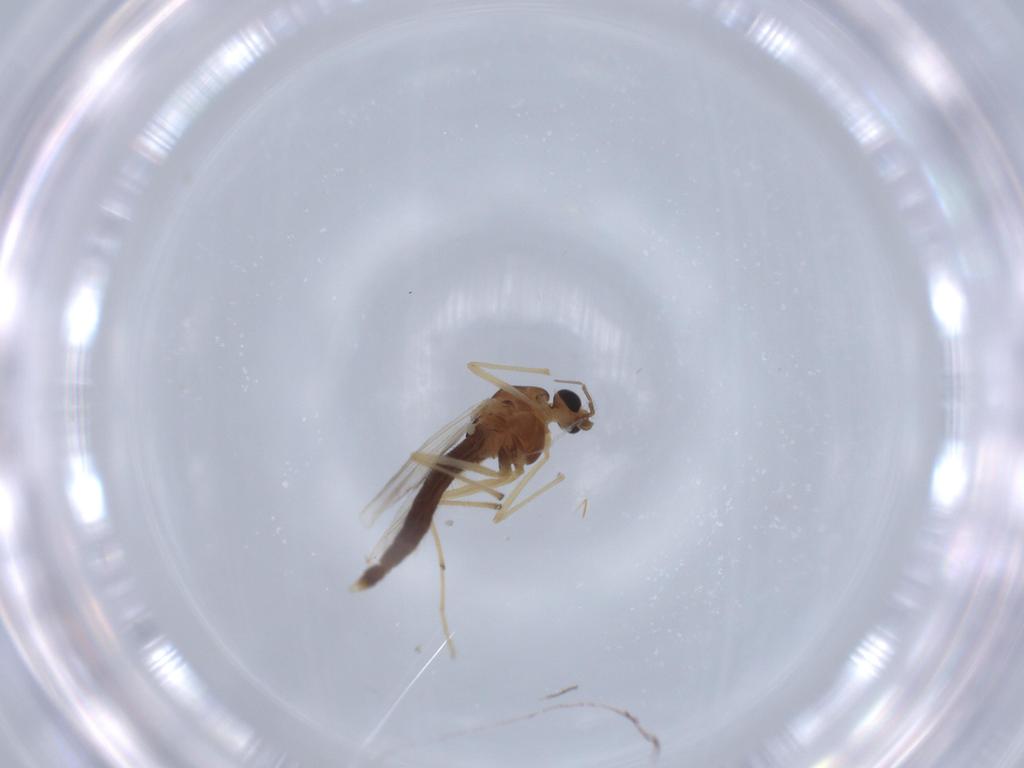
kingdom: Animalia
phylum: Arthropoda
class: Insecta
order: Diptera
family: Chironomidae
